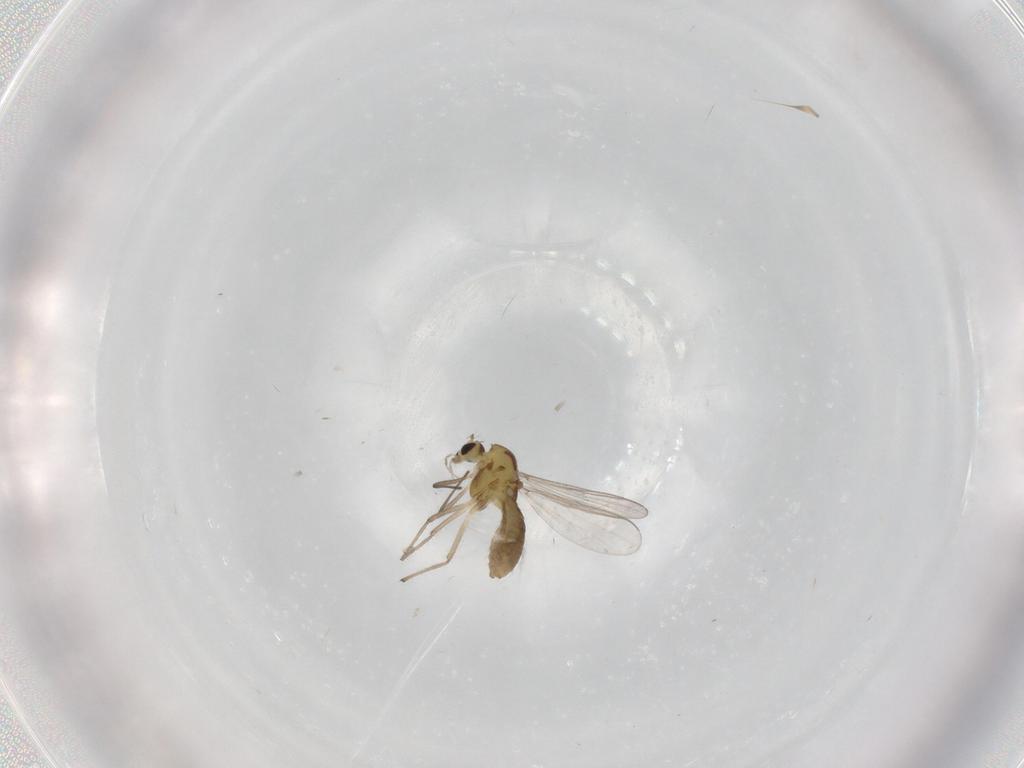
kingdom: Animalia
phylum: Arthropoda
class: Insecta
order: Diptera
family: Chironomidae
